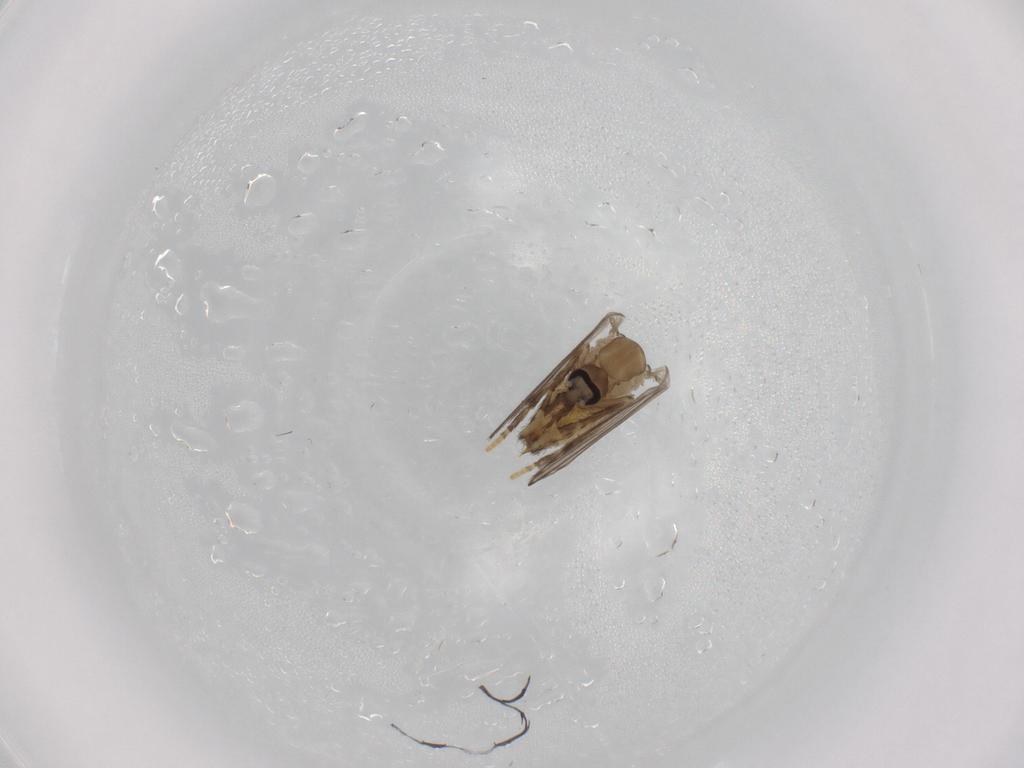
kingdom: Animalia
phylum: Arthropoda
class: Insecta
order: Diptera
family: Psychodidae
